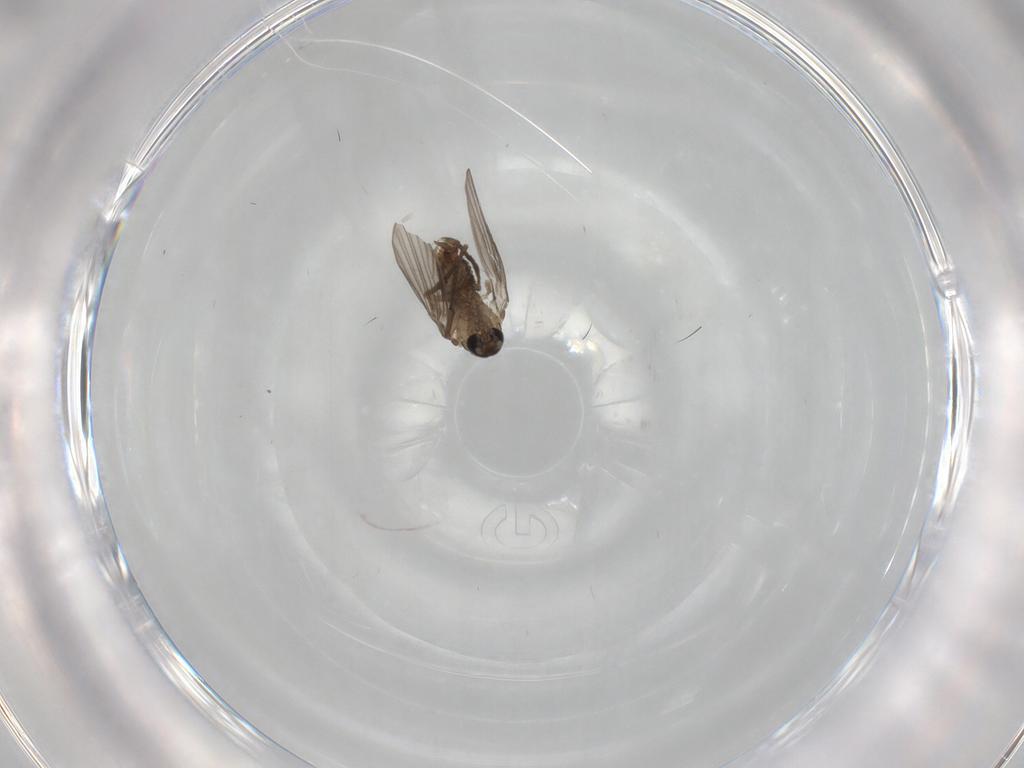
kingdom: Animalia
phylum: Arthropoda
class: Insecta
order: Diptera
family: Psychodidae
